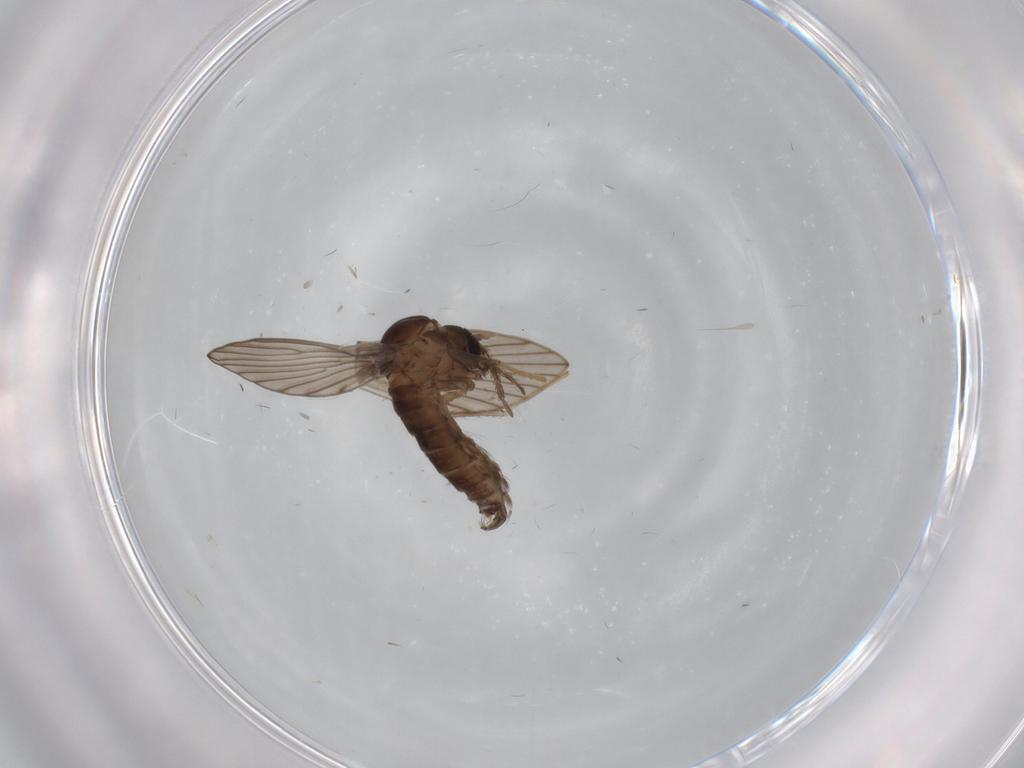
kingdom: Animalia
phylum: Arthropoda
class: Insecta
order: Diptera
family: Psychodidae
